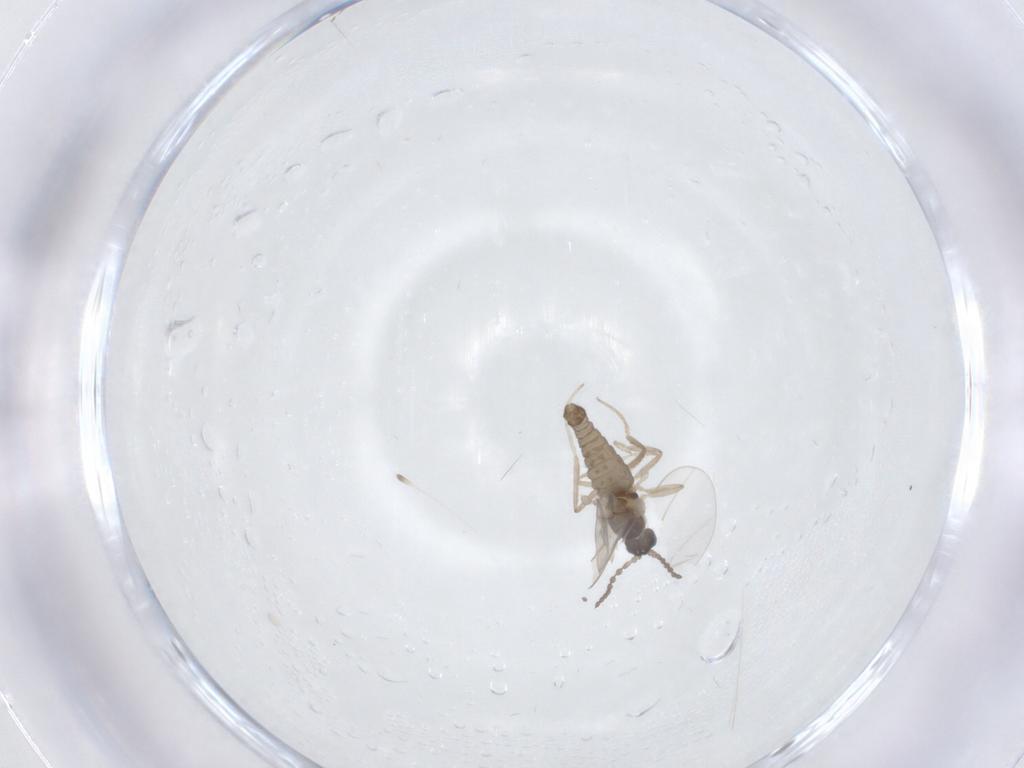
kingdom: Animalia
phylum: Arthropoda
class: Insecta
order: Diptera
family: Cecidomyiidae
